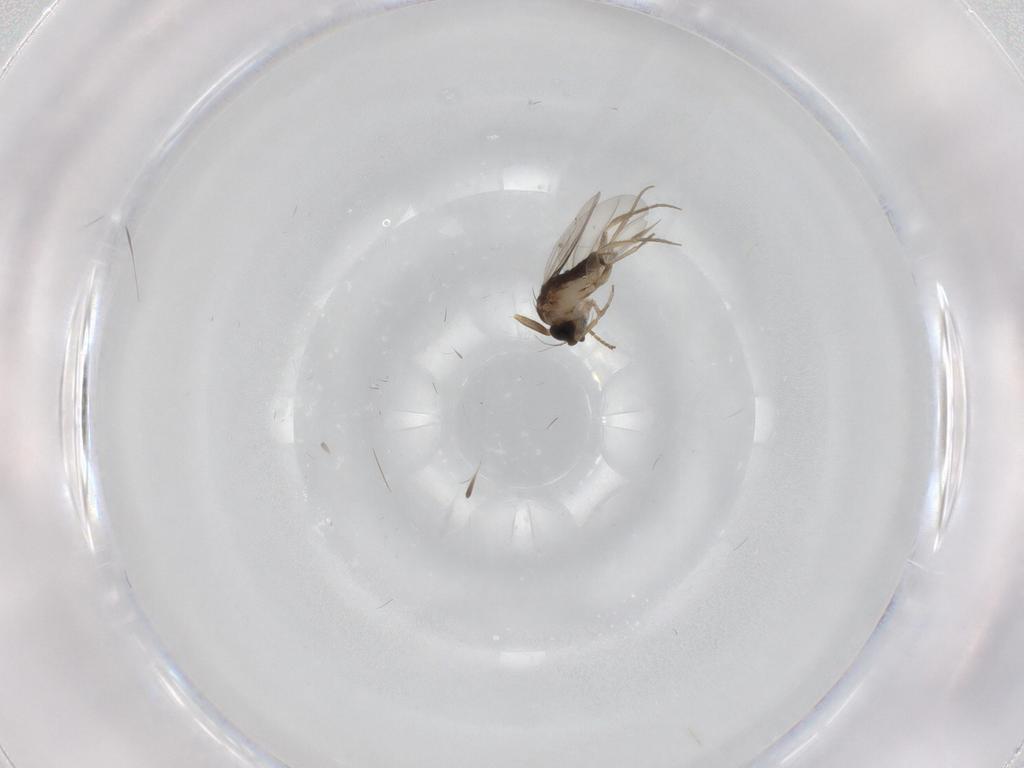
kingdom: Animalia
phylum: Arthropoda
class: Insecta
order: Diptera
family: Phoridae
